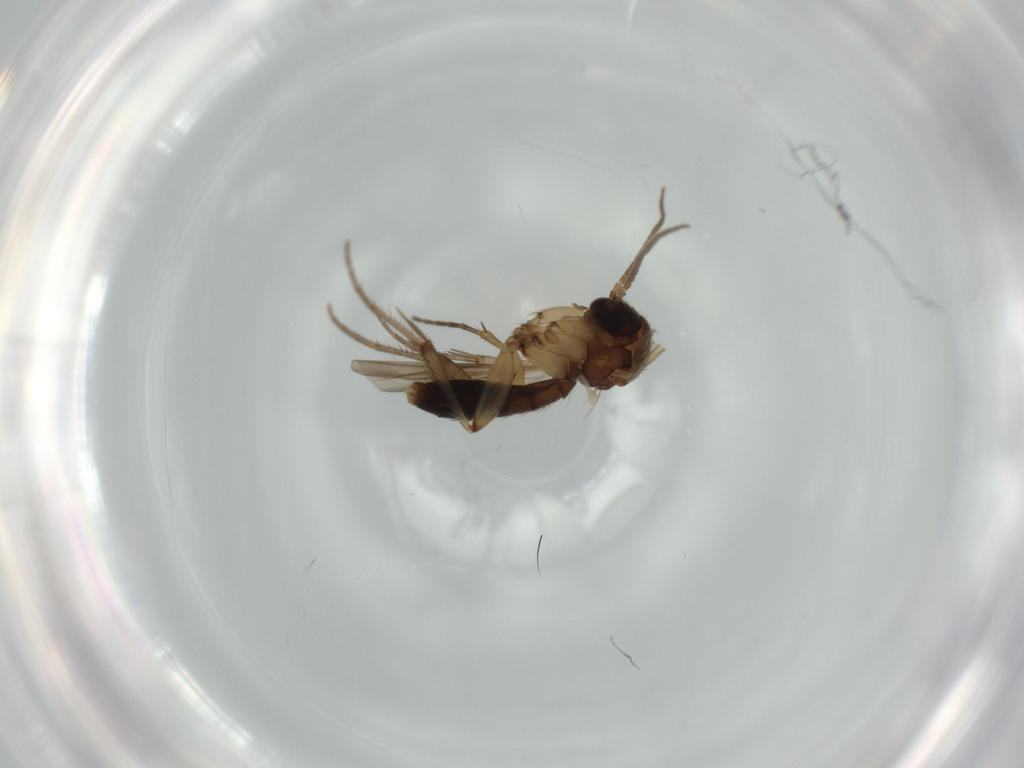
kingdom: Animalia
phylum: Arthropoda
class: Insecta
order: Diptera
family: Chironomidae
